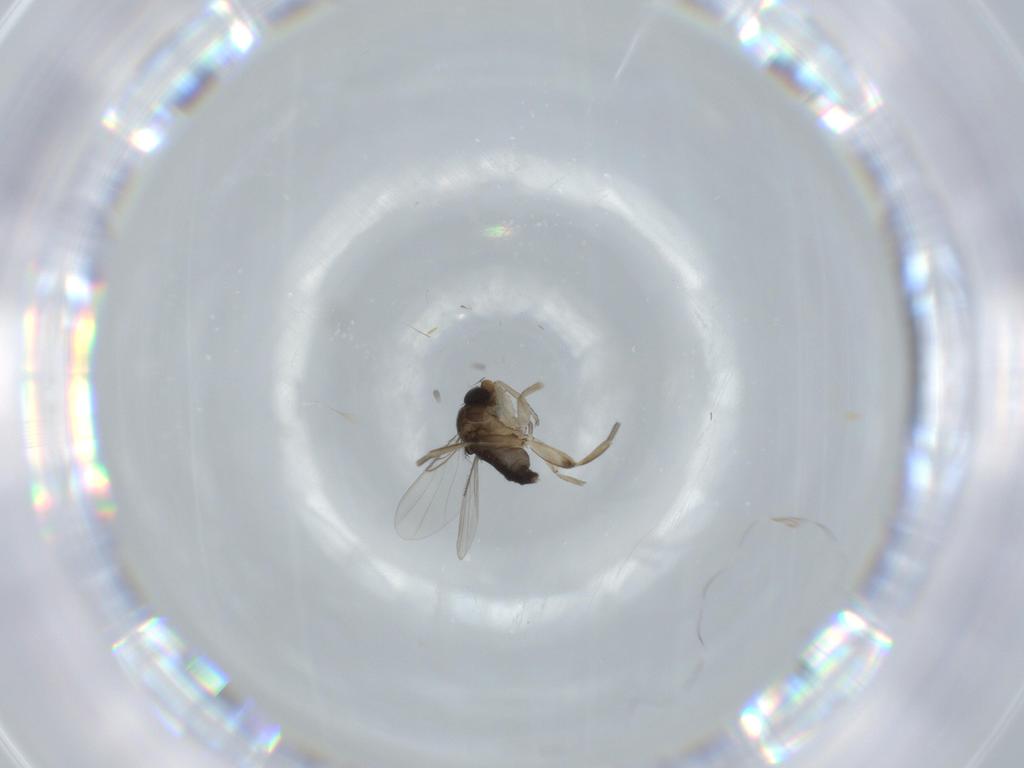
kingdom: Animalia
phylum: Arthropoda
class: Insecta
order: Diptera
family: Phoridae
